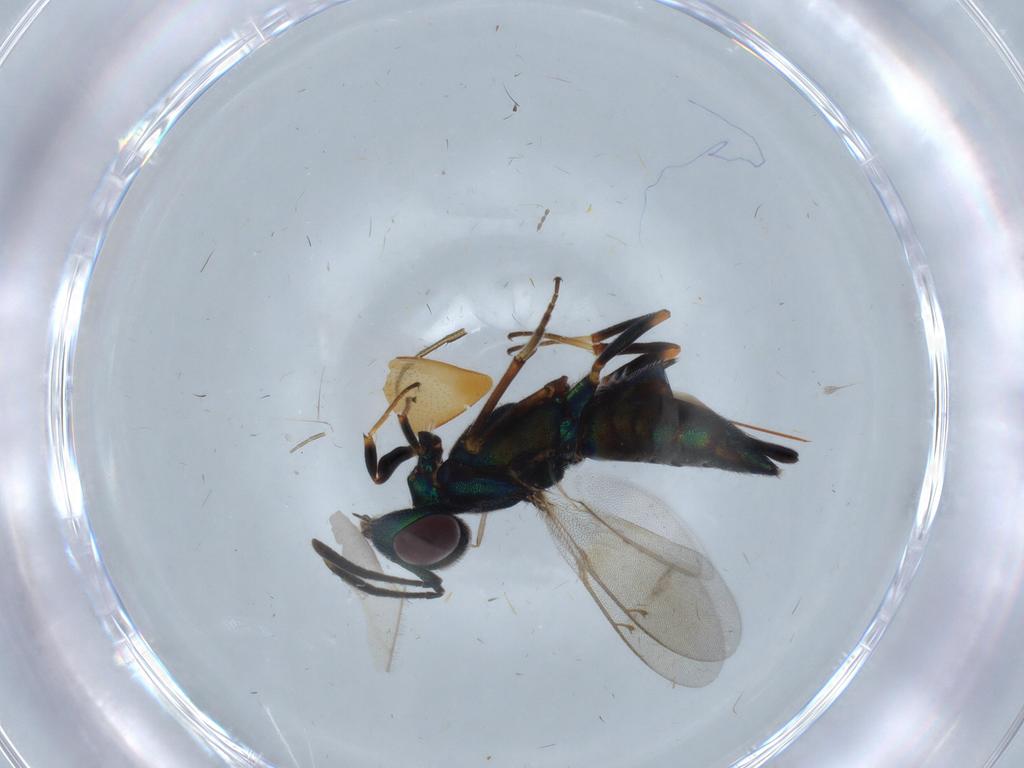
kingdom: Animalia
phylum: Arthropoda
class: Insecta
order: Hymenoptera
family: Eupelmidae
